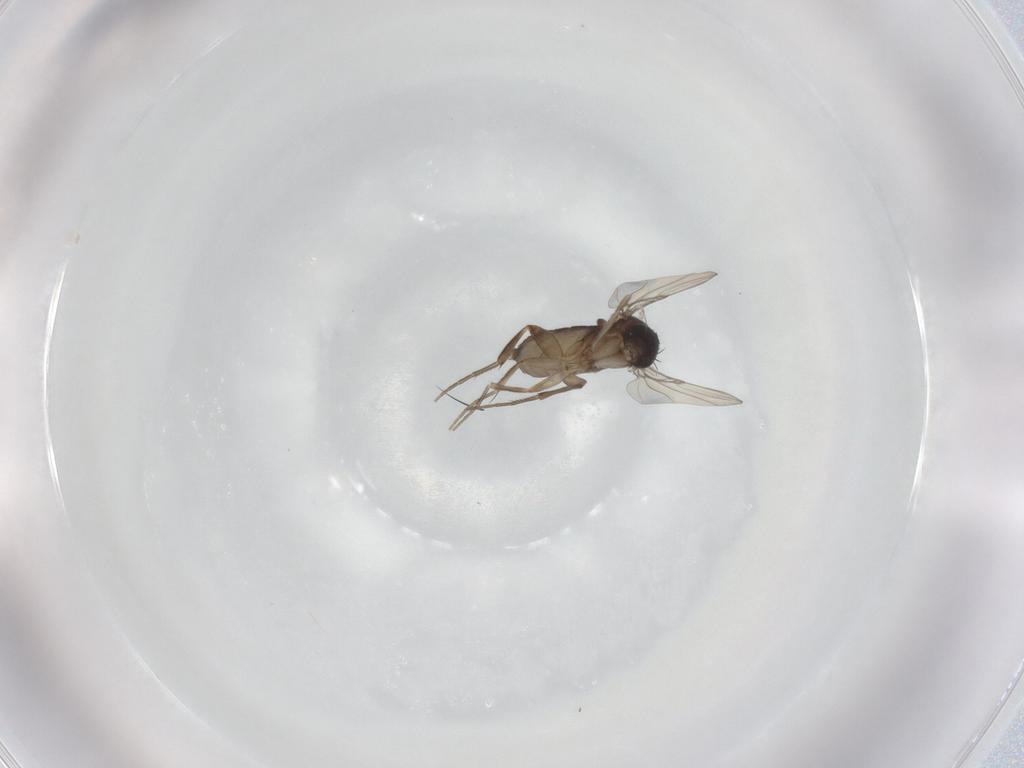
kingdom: Animalia
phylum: Arthropoda
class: Insecta
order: Diptera
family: Phoridae
